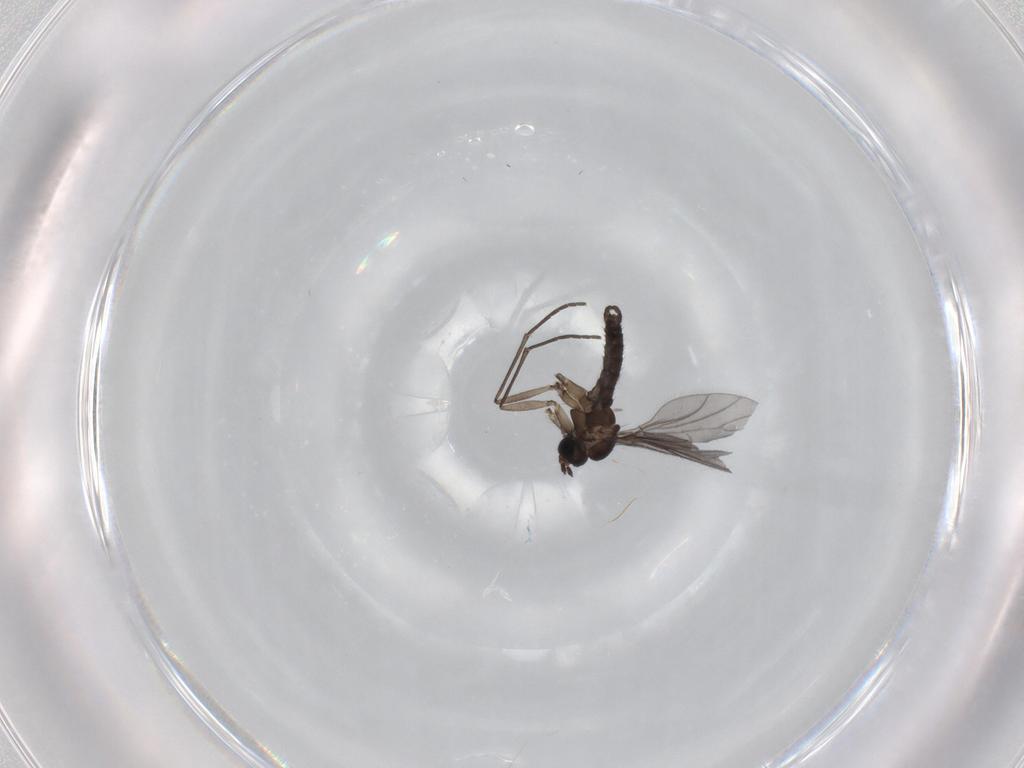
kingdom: Animalia
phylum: Arthropoda
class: Insecta
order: Diptera
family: Sciaridae
